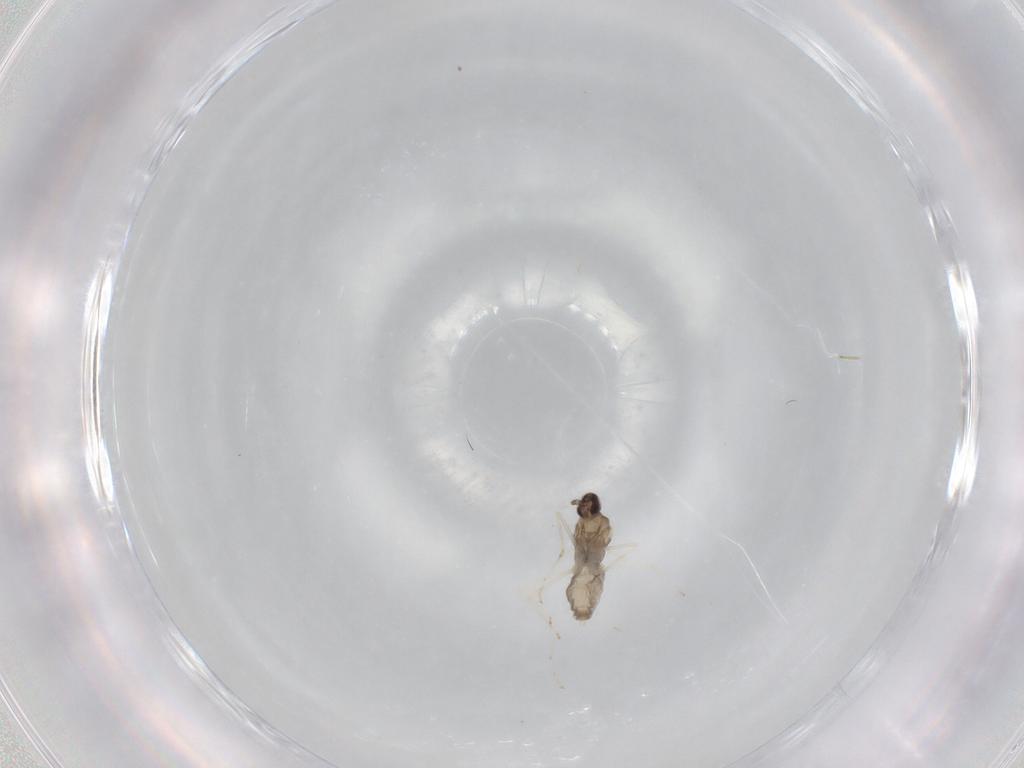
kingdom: Animalia
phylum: Arthropoda
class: Insecta
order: Diptera
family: Cecidomyiidae
